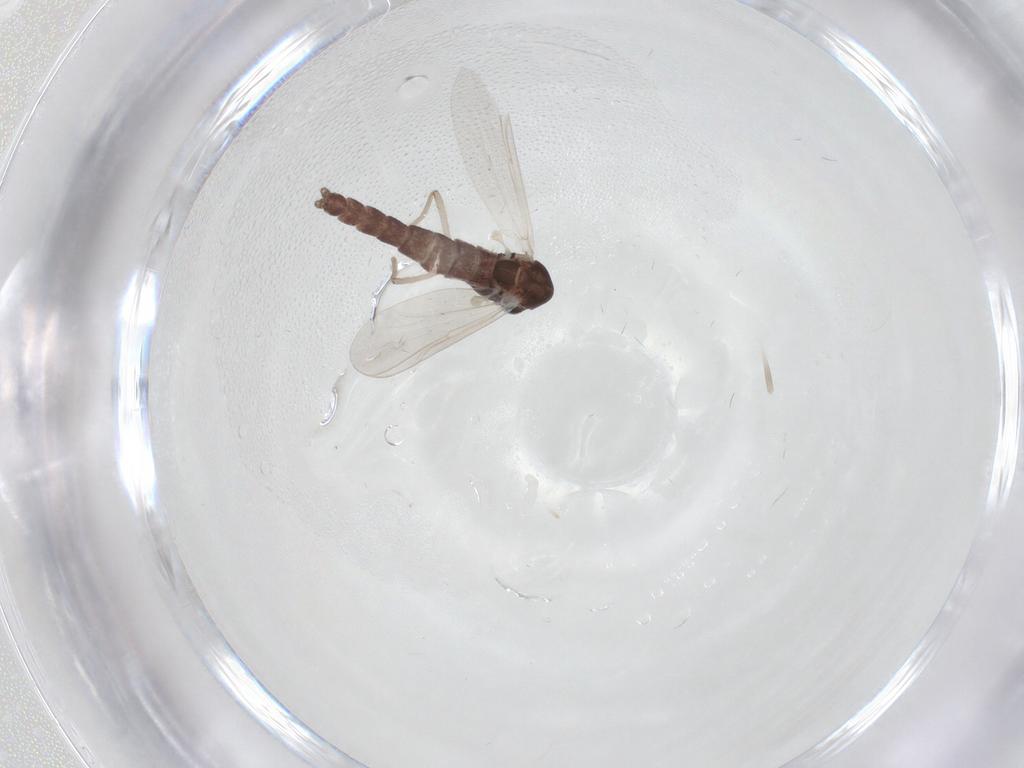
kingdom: Animalia
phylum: Arthropoda
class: Insecta
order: Diptera
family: Chironomidae
